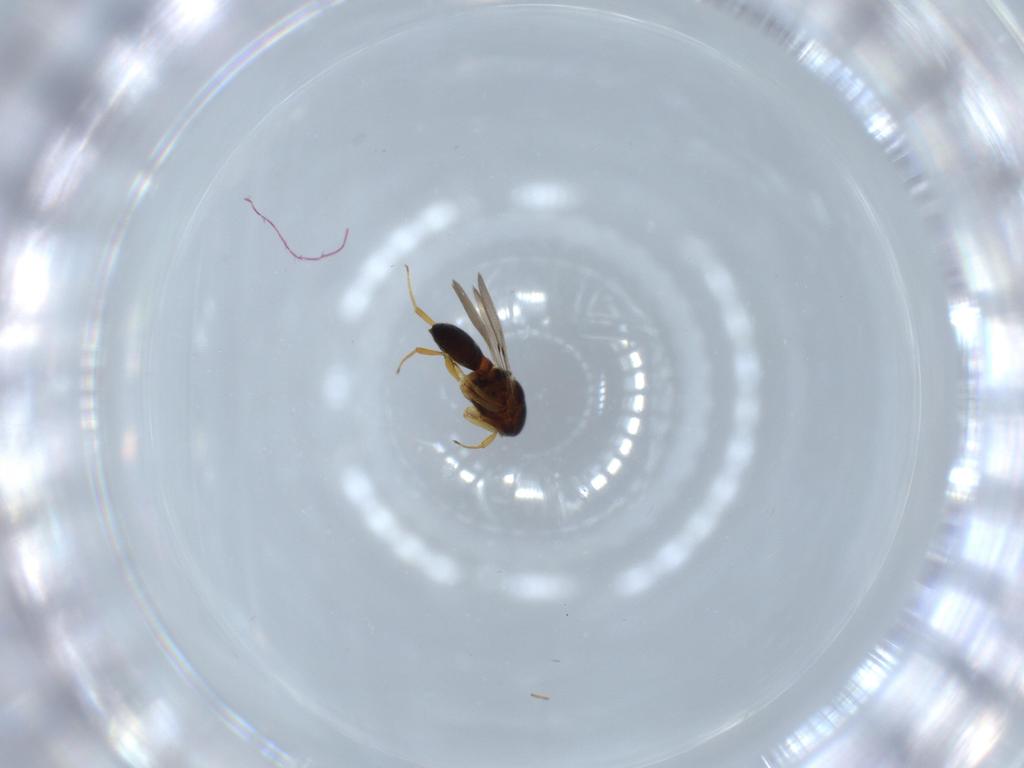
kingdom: Animalia
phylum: Arthropoda
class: Insecta
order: Hymenoptera
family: Scelionidae
